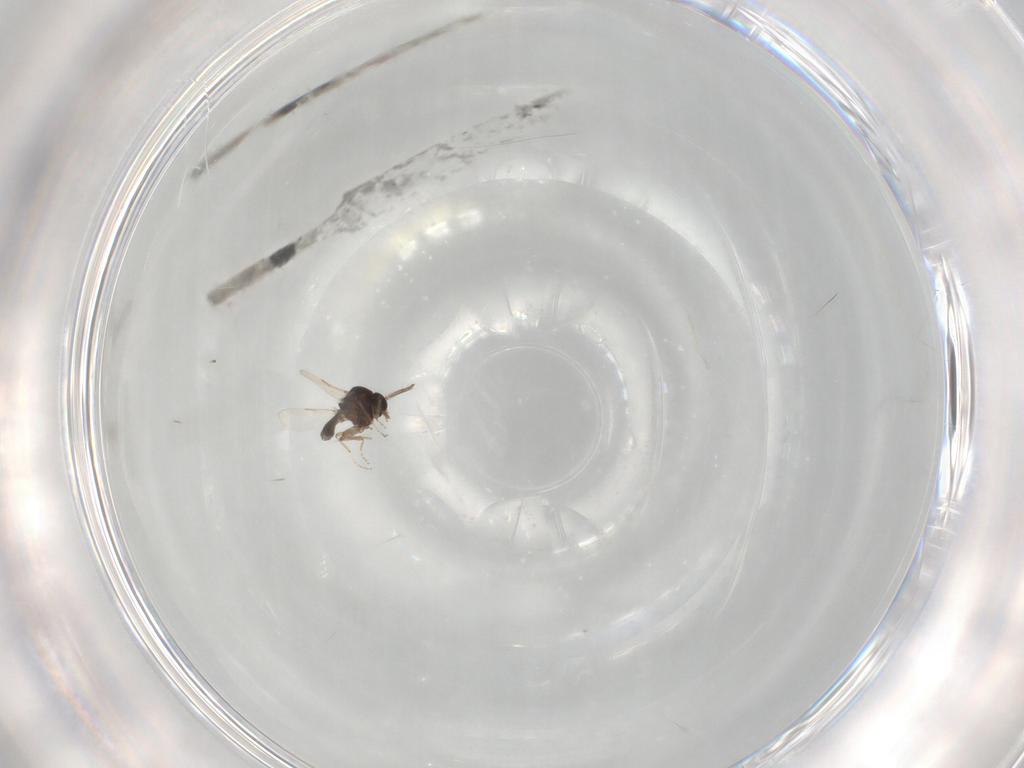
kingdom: Animalia
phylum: Arthropoda
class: Insecta
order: Diptera
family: Ceratopogonidae
